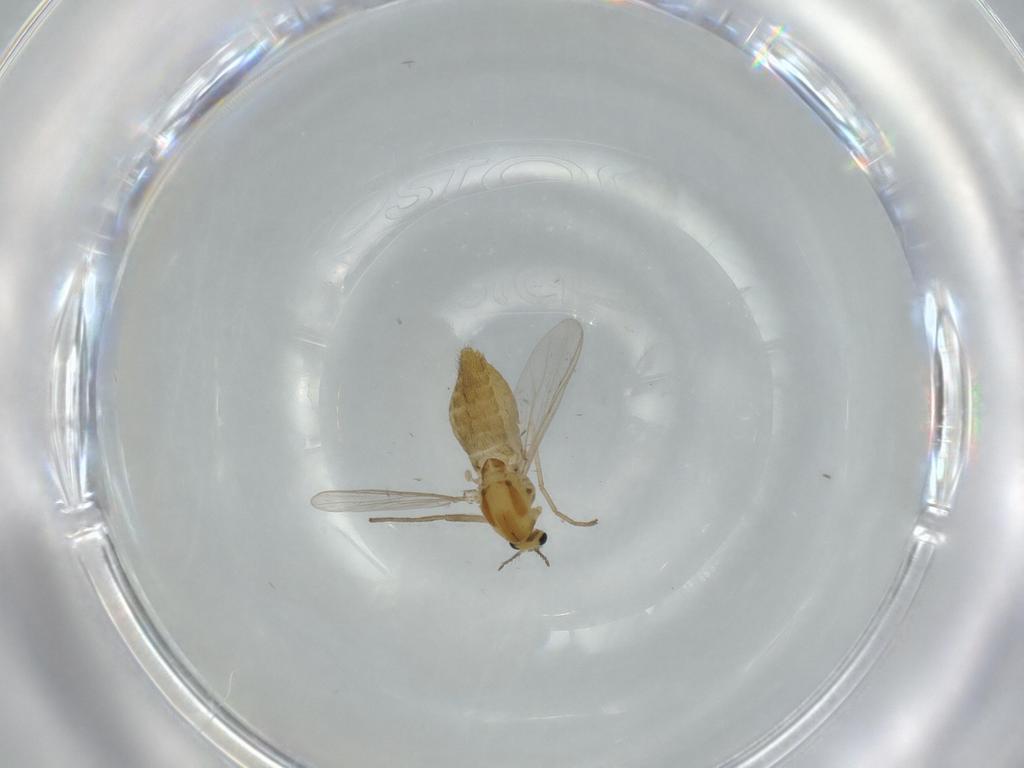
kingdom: Animalia
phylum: Arthropoda
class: Insecta
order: Diptera
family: Chironomidae
